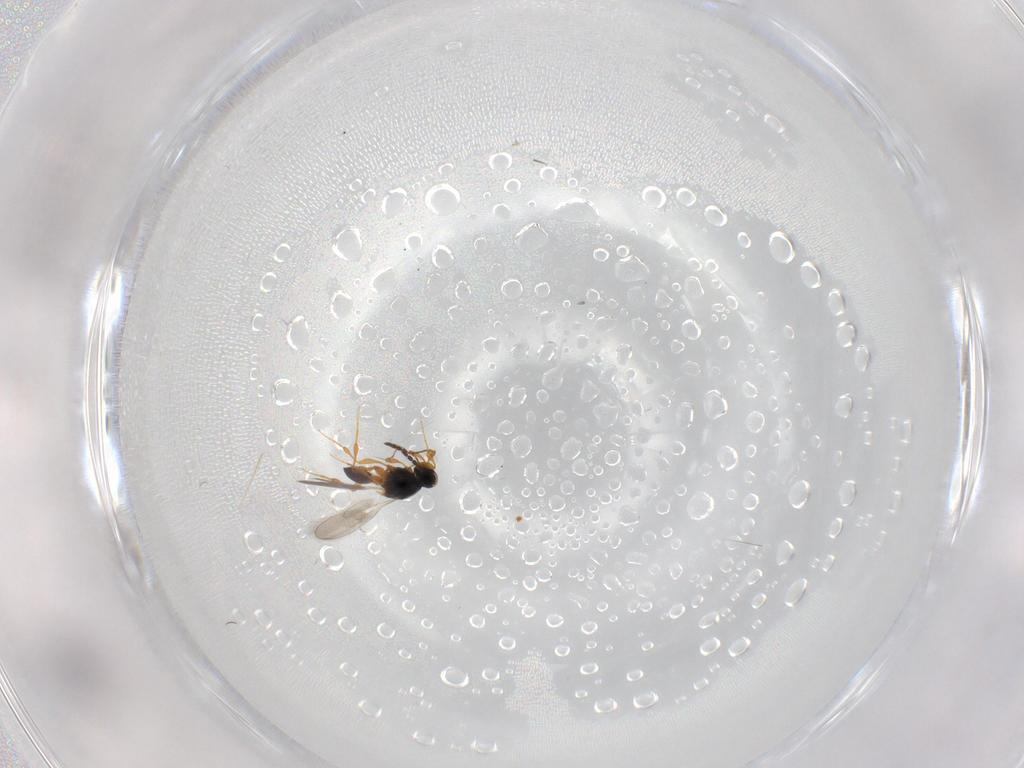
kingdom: Animalia
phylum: Arthropoda
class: Insecta
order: Hymenoptera
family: Platygastridae
